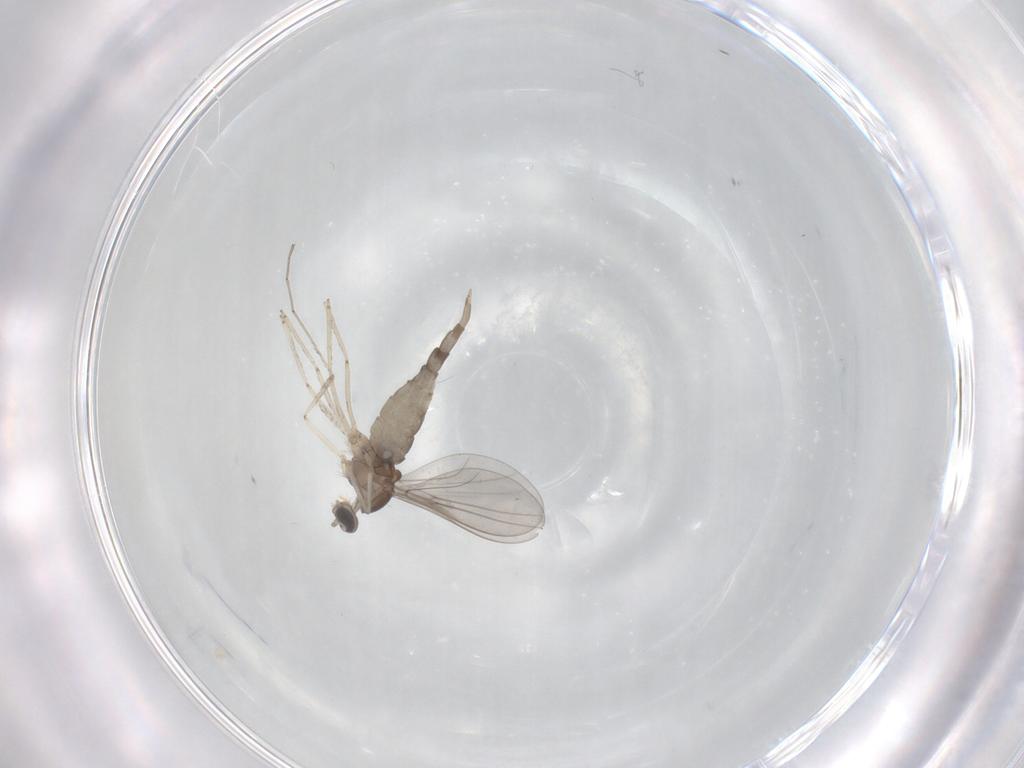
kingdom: Animalia
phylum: Arthropoda
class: Insecta
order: Diptera
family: Cecidomyiidae
